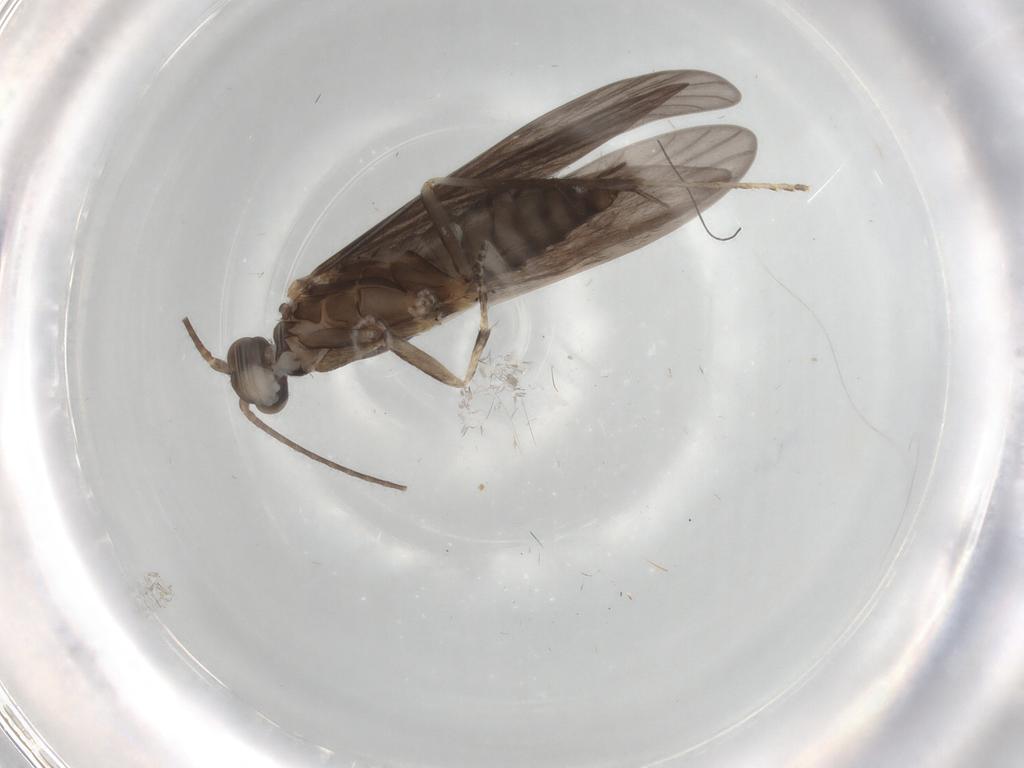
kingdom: Animalia
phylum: Arthropoda
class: Insecta
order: Trichoptera
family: Xiphocentronidae
